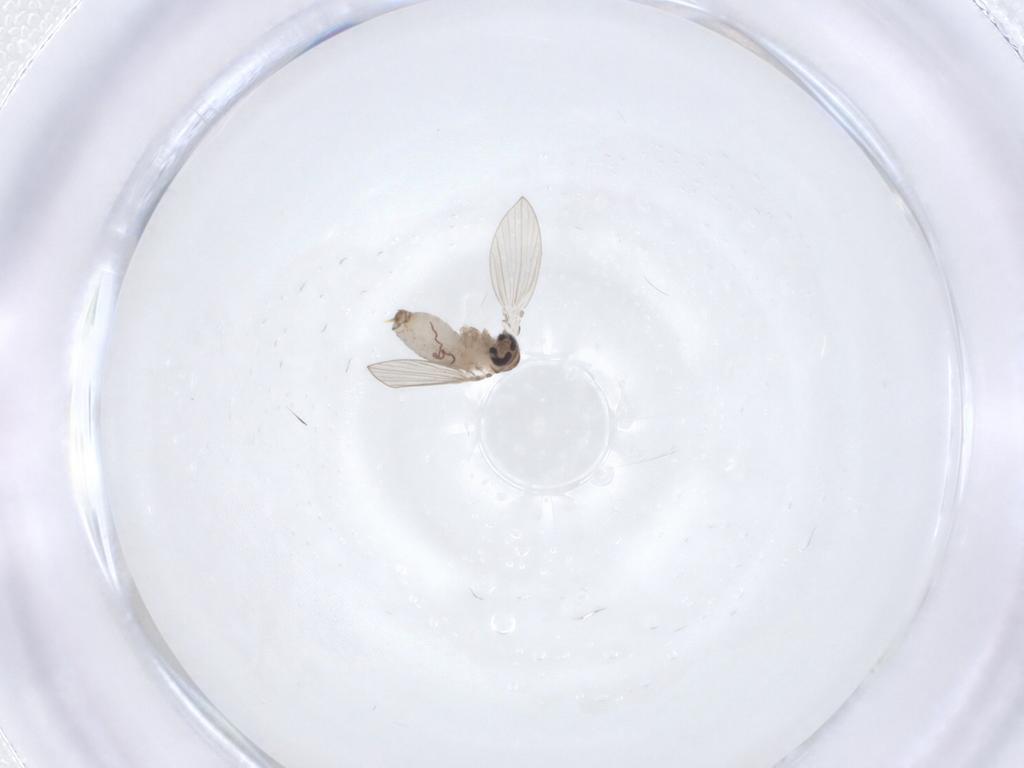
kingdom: Animalia
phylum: Arthropoda
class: Insecta
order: Diptera
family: Psychodidae
